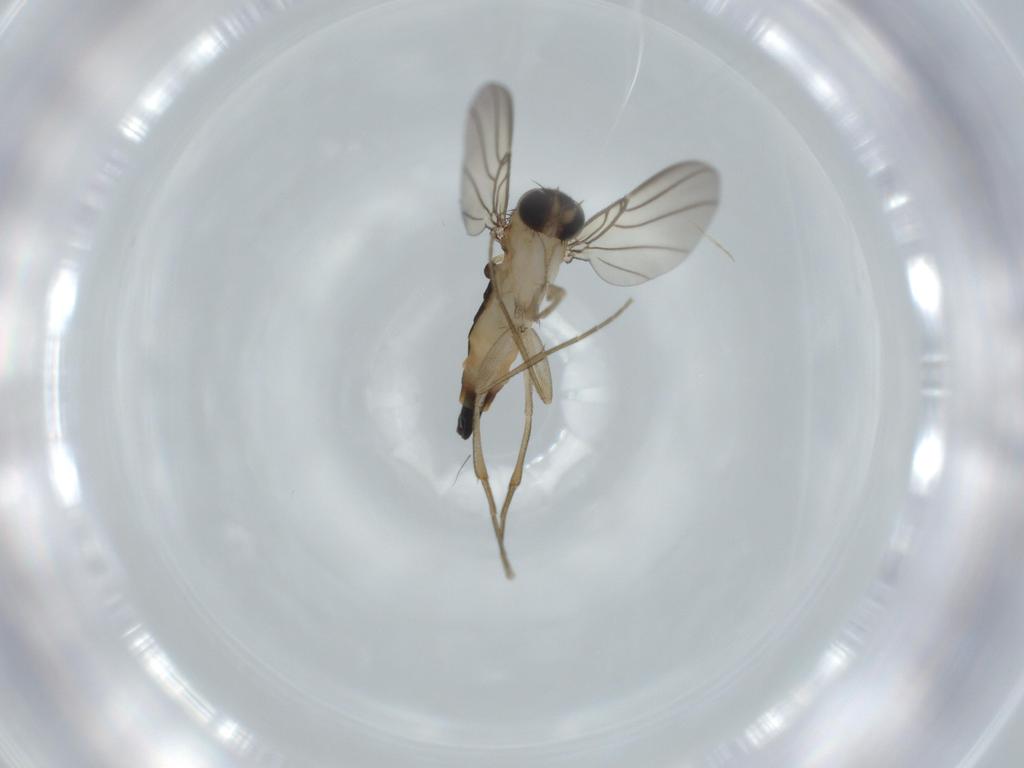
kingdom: Animalia
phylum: Arthropoda
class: Insecta
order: Diptera
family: Phoridae
